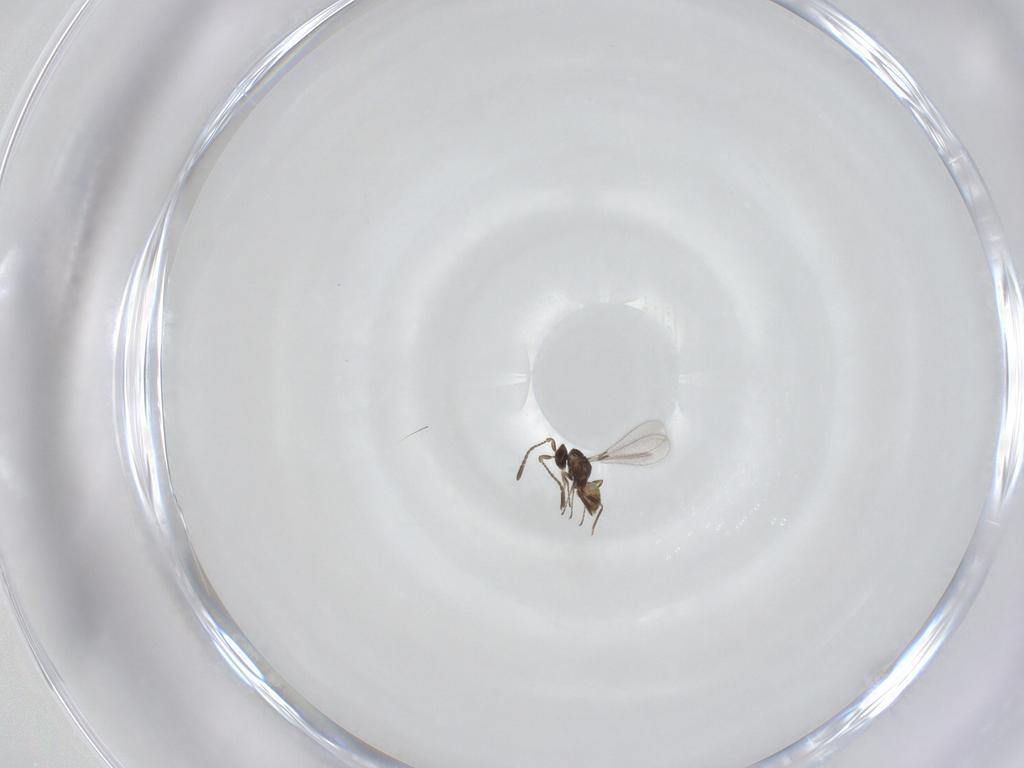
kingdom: Animalia
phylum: Arthropoda
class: Insecta
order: Hymenoptera
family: Mymaridae
